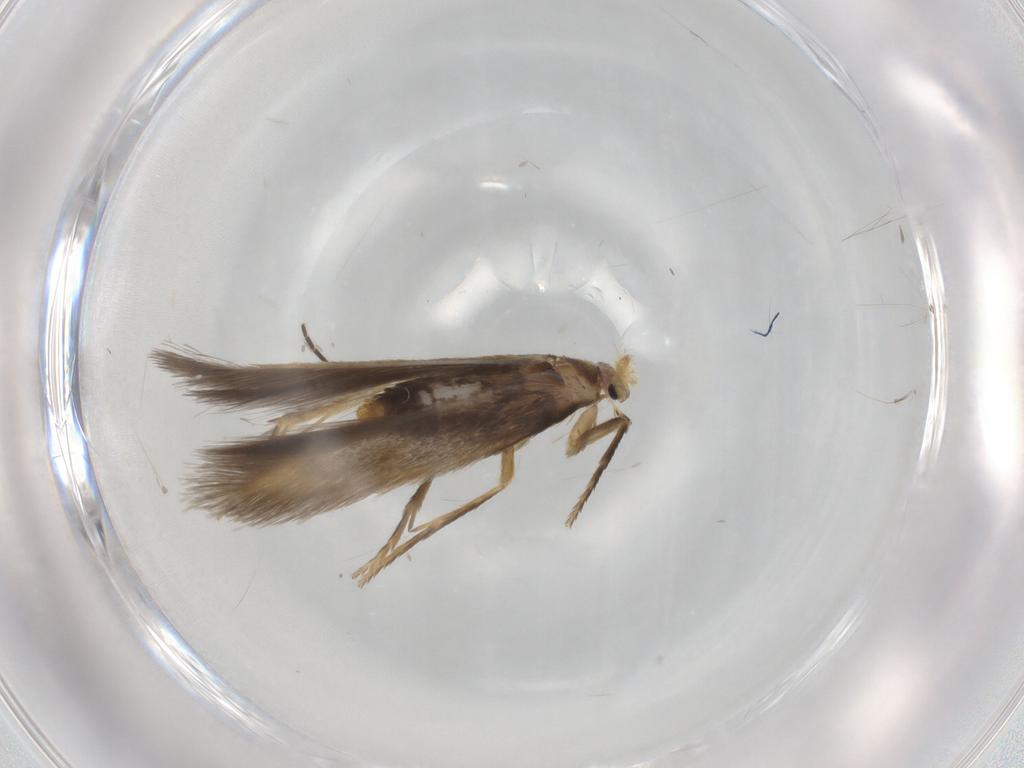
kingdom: Animalia
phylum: Arthropoda
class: Insecta
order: Lepidoptera
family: Nepticulidae
